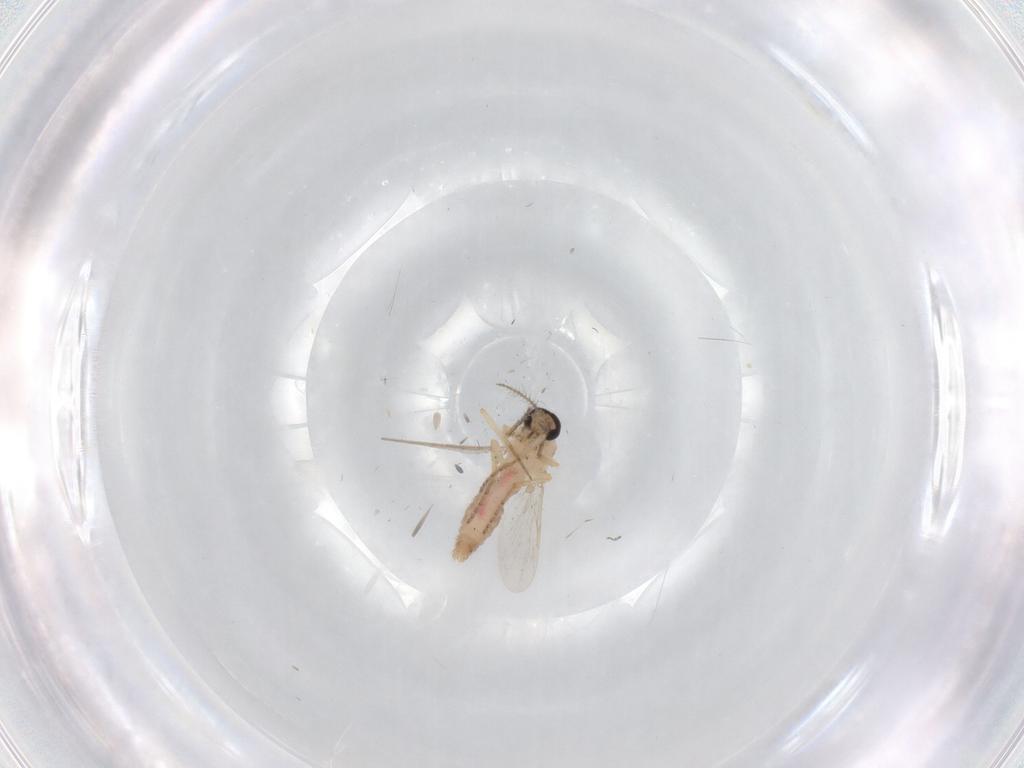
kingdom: Animalia
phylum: Arthropoda
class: Insecta
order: Diptera
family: Ceratopogonidae
